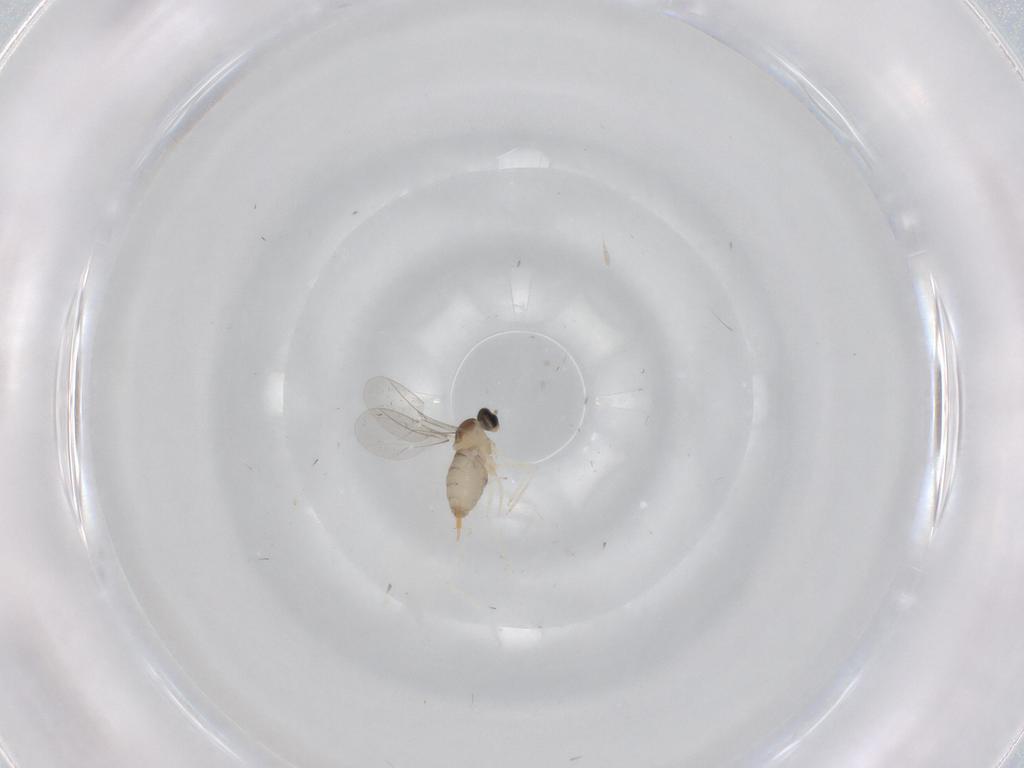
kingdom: Animalia
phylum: Arthropoda
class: Insecta
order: Diptera
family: Cecidomyiidae
